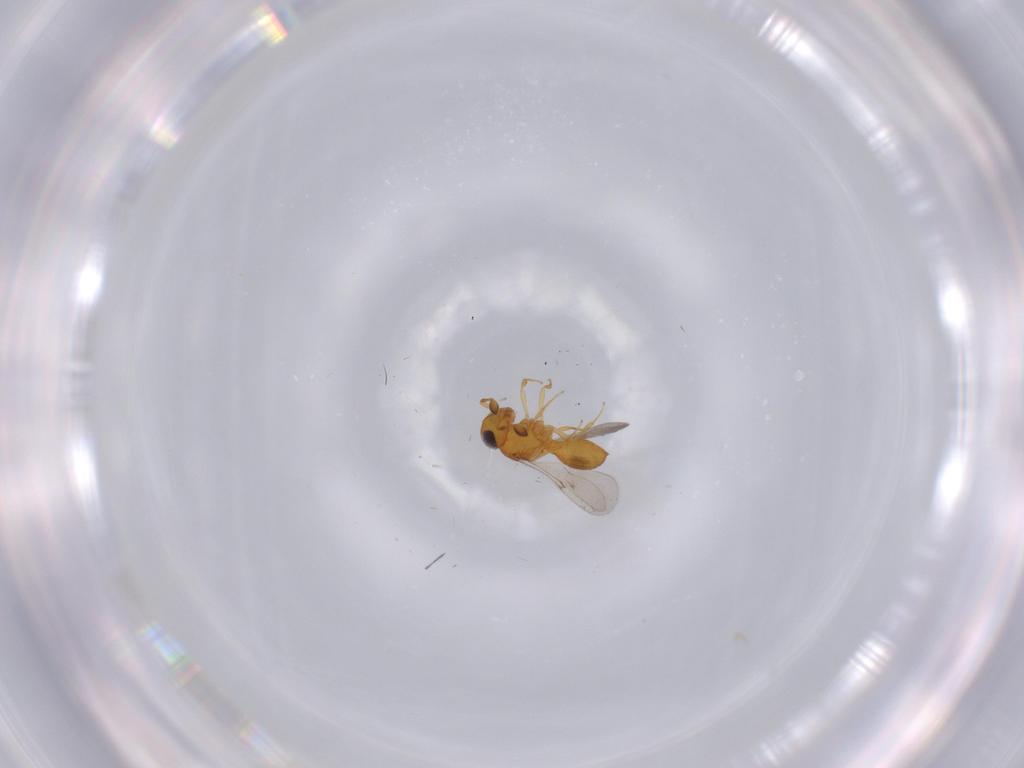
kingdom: Animalia
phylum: Arthropoda
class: Insecta
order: Hymenoptera
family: Scelionidae
